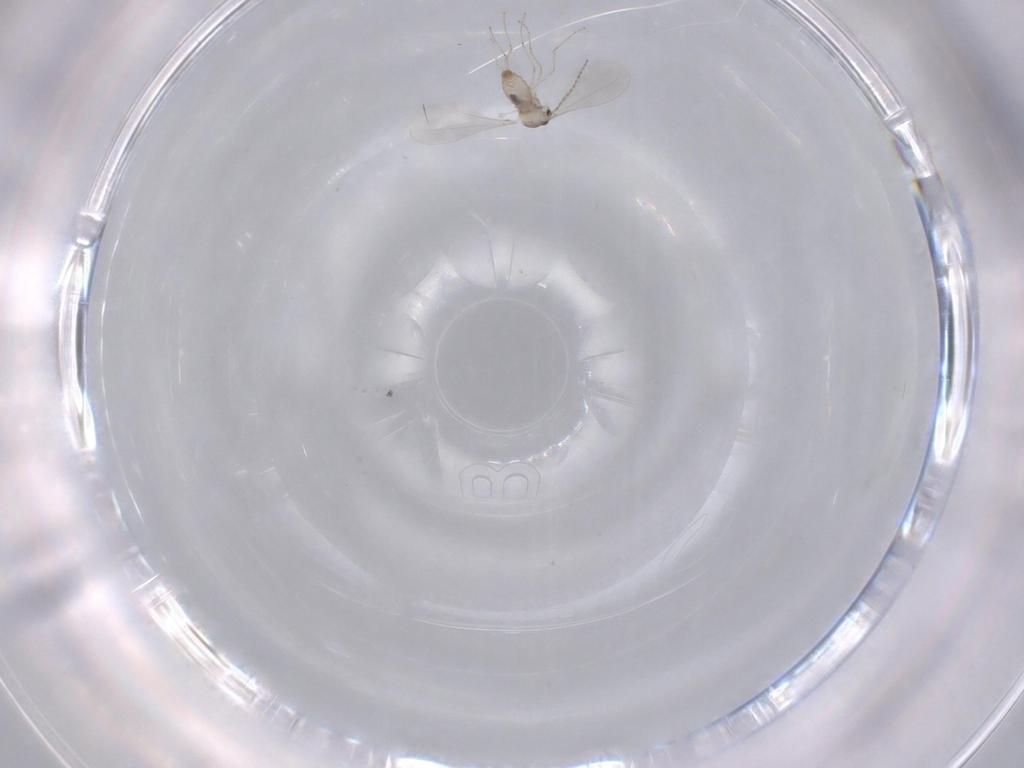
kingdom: Animalia
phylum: Arthropoda
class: Insecta
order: Diptera
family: Cecidomyiidae
